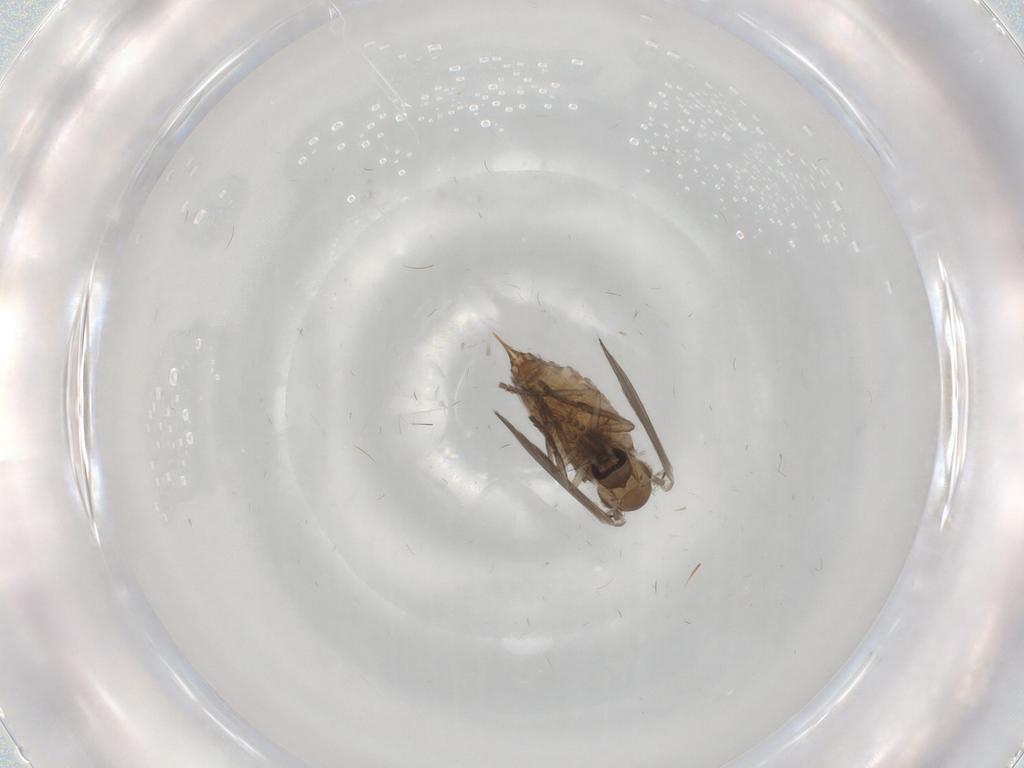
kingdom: Animalia
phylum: Arthropoda
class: Insecta
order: Diptera
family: Psychodidae
